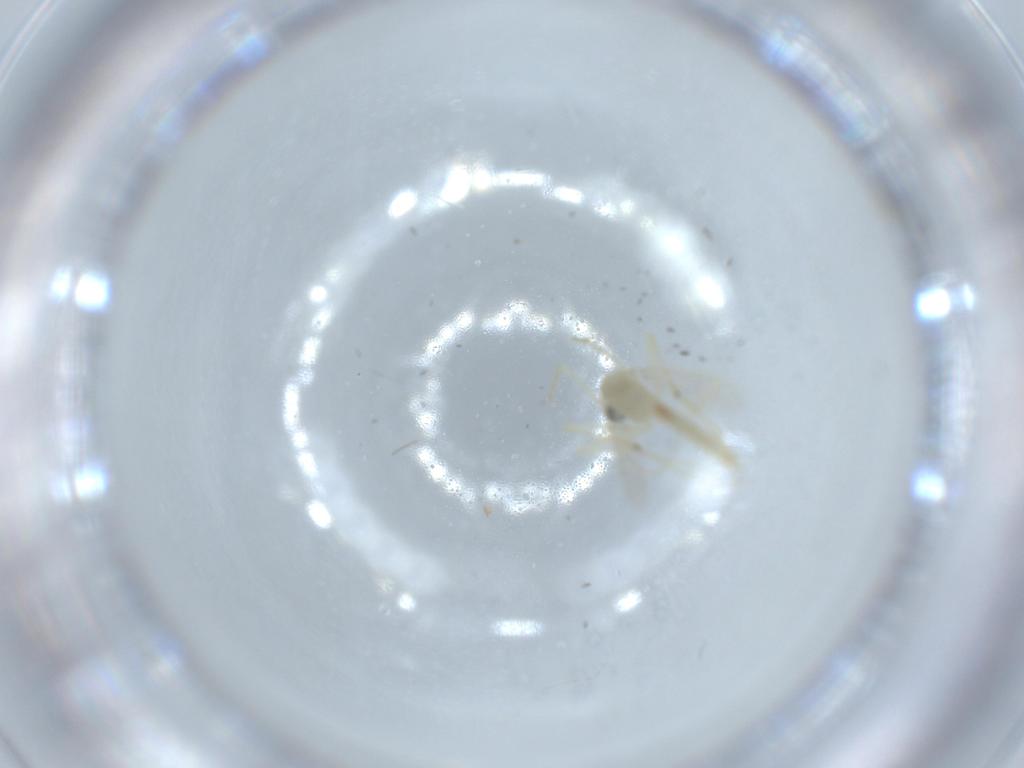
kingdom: Animalia
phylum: Arthropoda
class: Insecta
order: Diptera
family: Chironomidae
